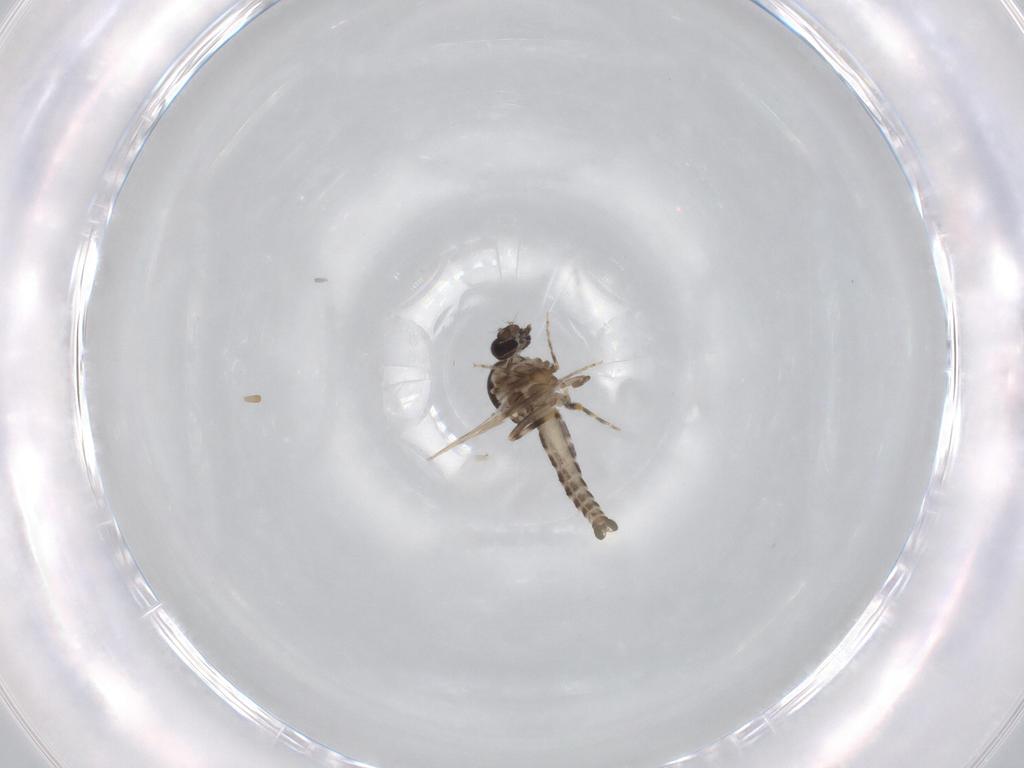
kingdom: Animalia
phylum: Arthropoda
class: Insecta
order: Diptera
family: Ceratopogonidae
